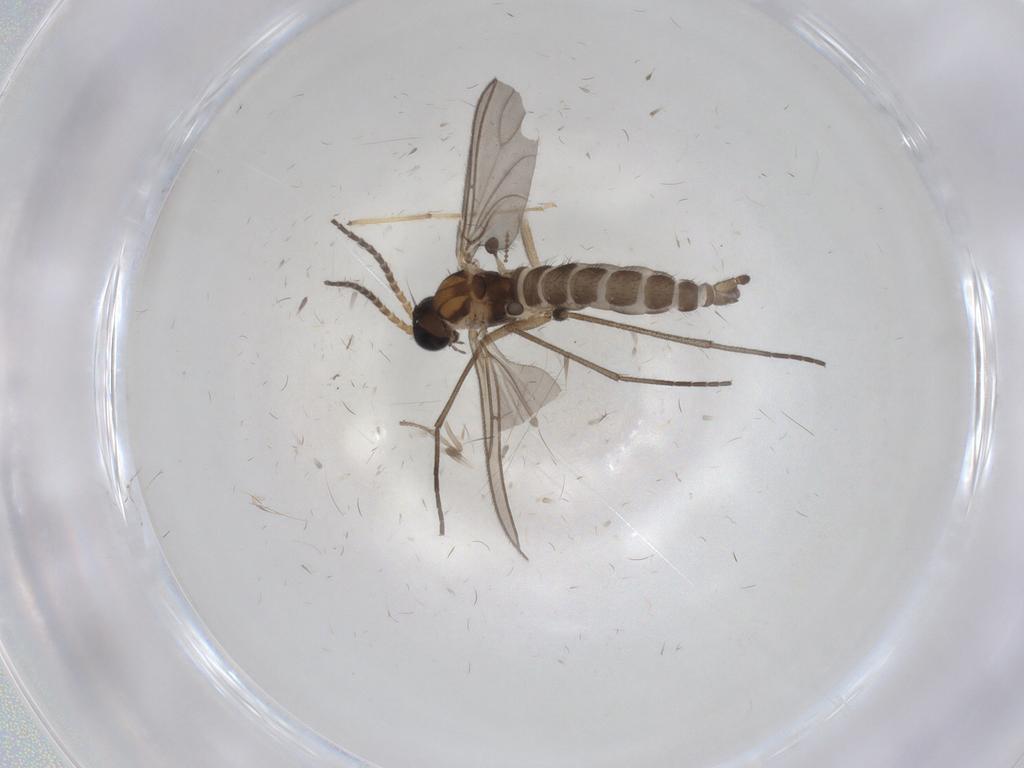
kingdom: Animalia
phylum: Arthropoda
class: Insecta
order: Diptera
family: Sciaridae
